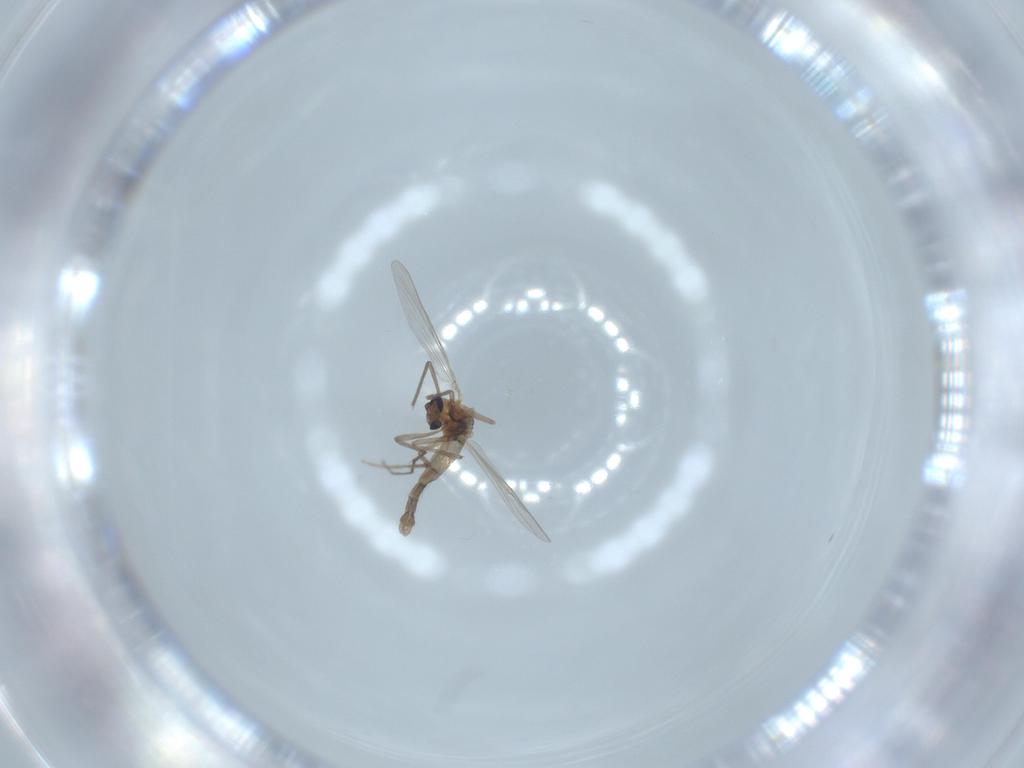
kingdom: Animalia
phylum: Arthropoda
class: Insecta
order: Diptera
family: Chironomidae
